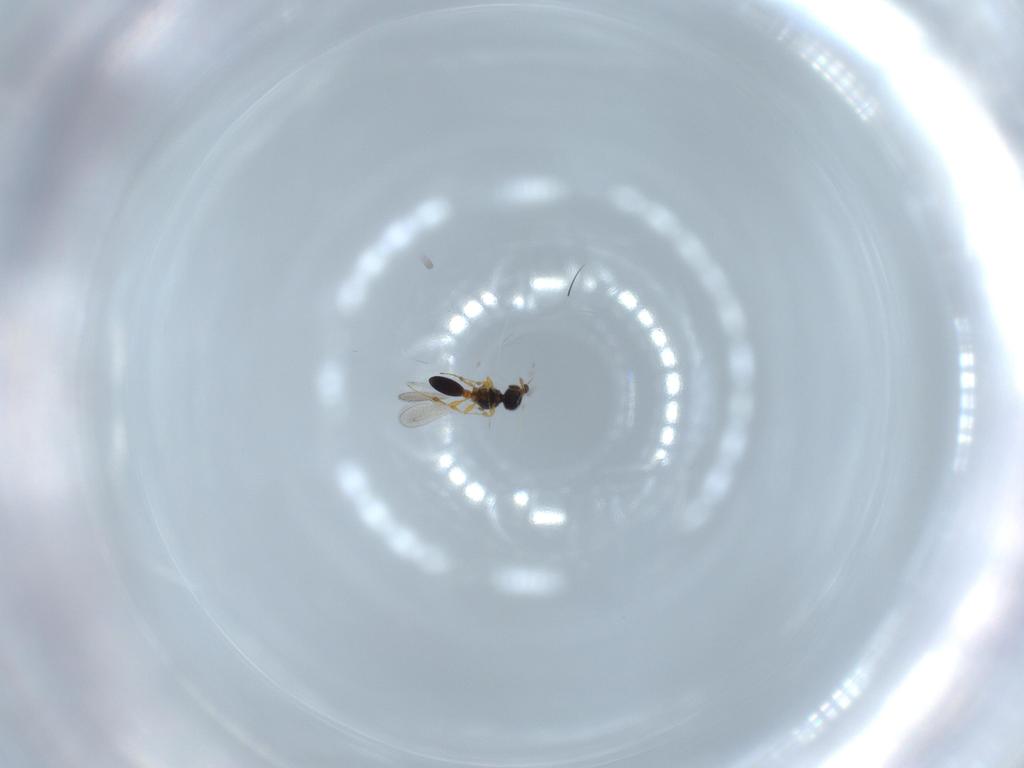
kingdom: Animalia
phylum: Arthropoda
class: Insecta
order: Hymenoptera
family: Platygastridae
